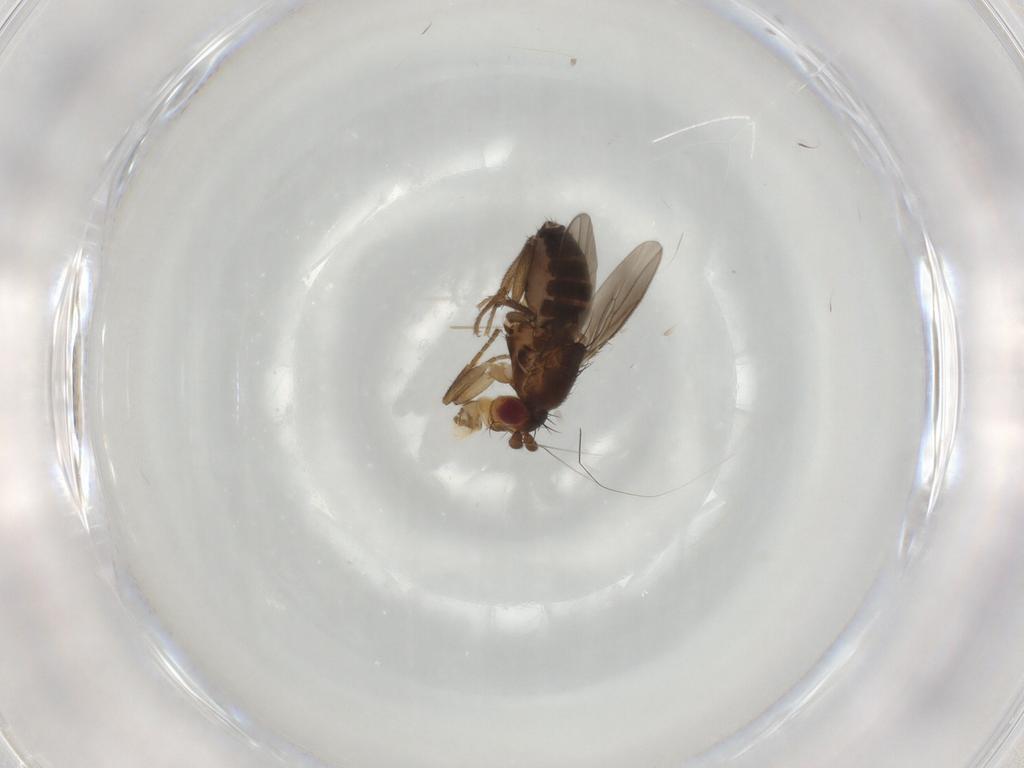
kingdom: Animalia
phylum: Arthropoda
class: Insecta
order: Diptera
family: Sphaeroceridae
